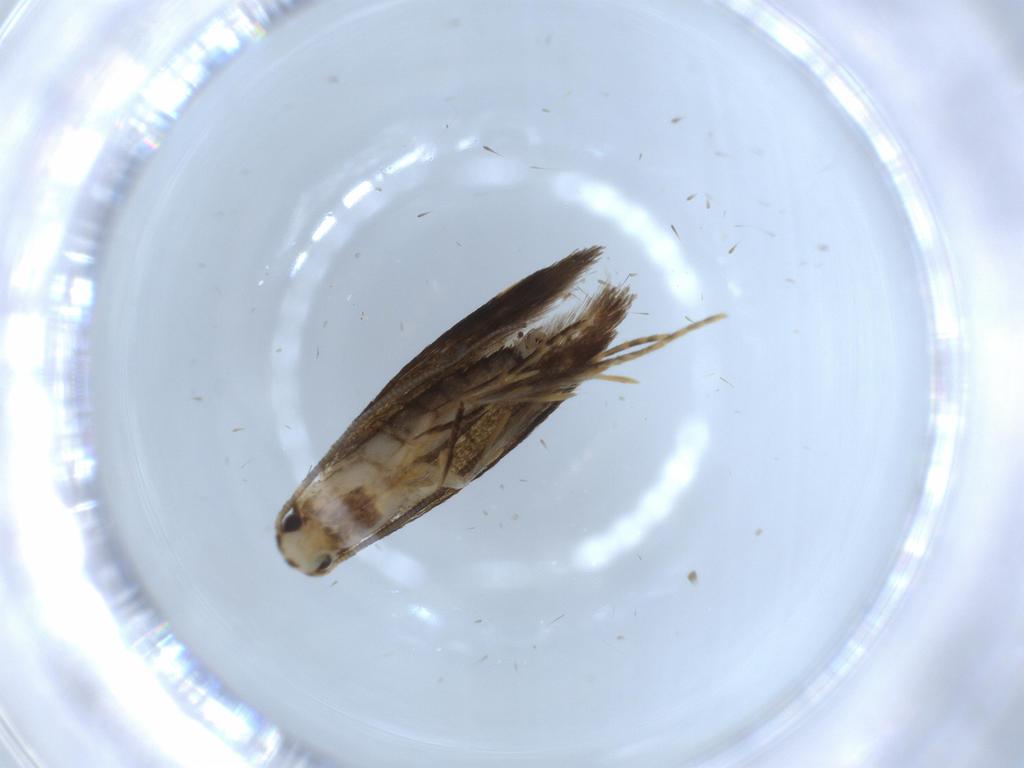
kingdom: Animalia
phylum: Arthropoda
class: Insecta
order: Lepidoptera
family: Tineidae
